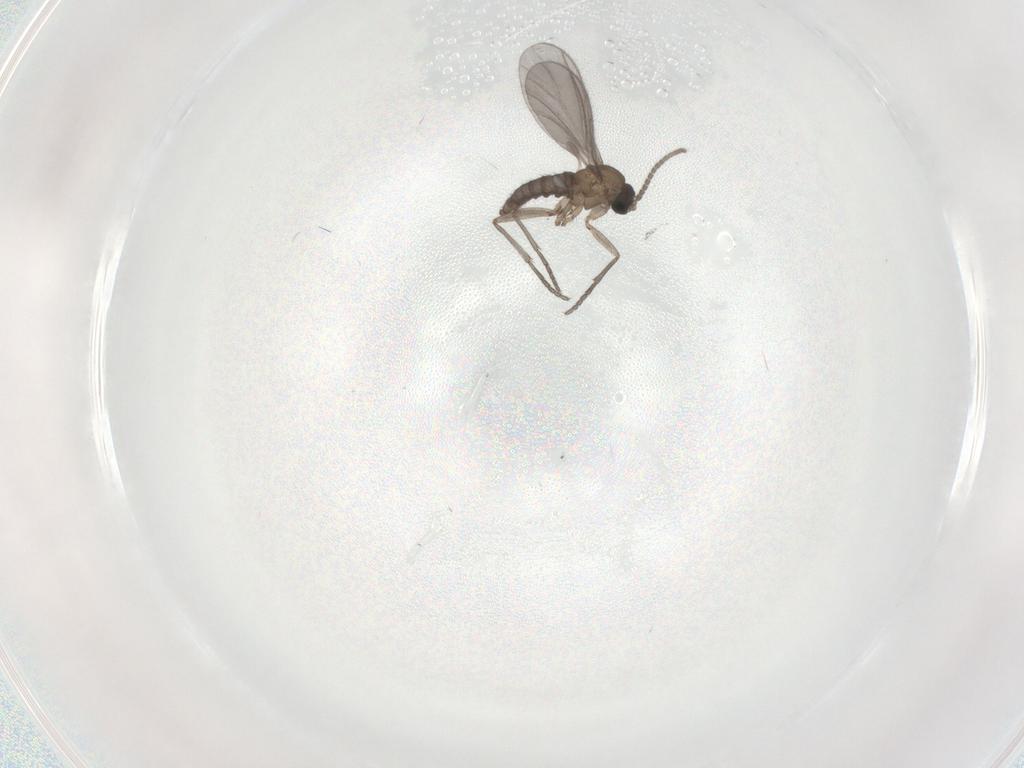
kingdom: Animalia
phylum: Arthropoda
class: Insecta
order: Diptera
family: Sciaridae
